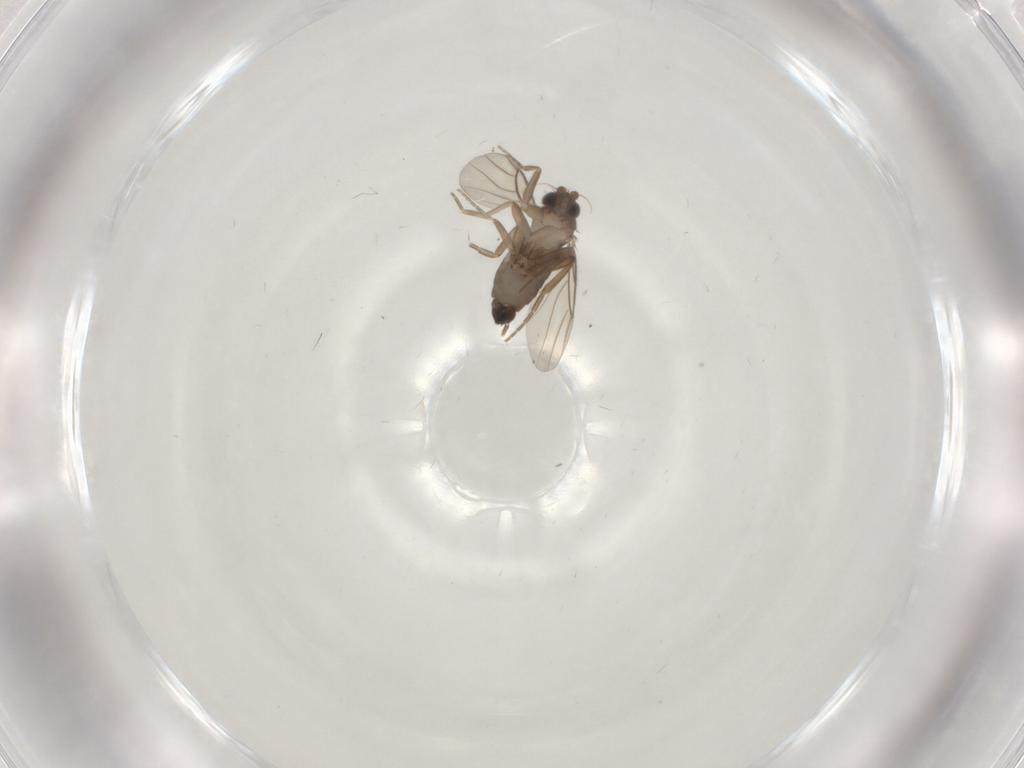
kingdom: Animalia
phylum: Arthropoda
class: Insecta
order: Diptera
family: Phoridae
